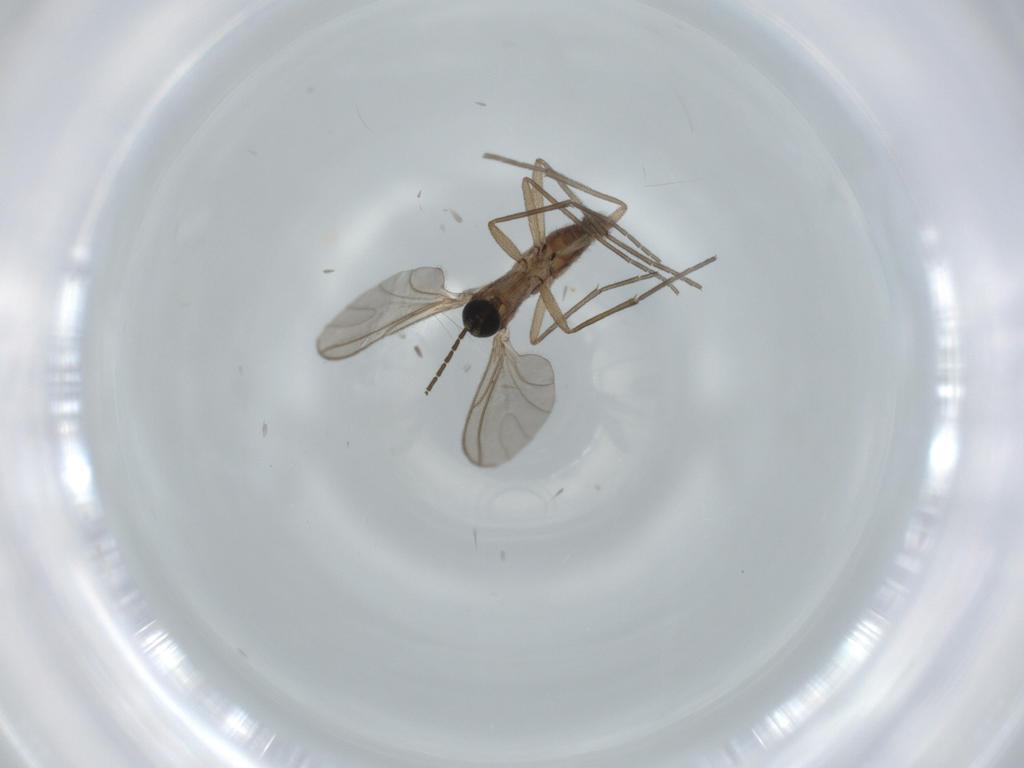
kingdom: Animalia
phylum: Arthropoda
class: Insecta
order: Diptera
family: Sciaridae
